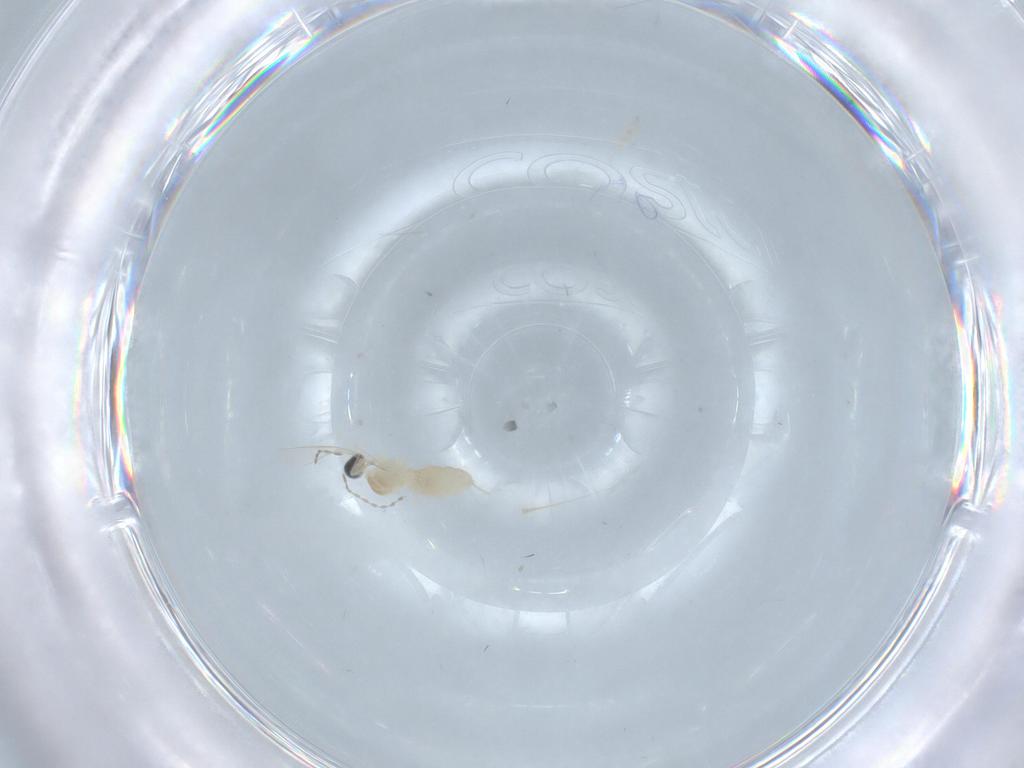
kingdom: Animalia
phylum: Arthropoda
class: Insecta
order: Diptera
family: Cecidomyiidae
